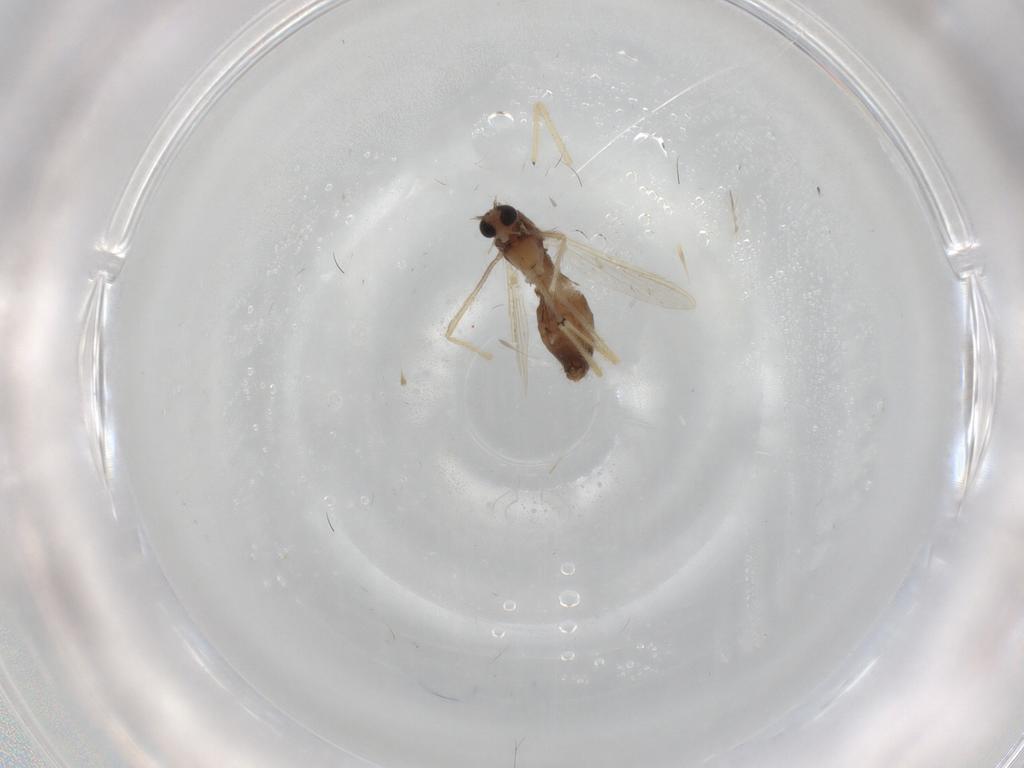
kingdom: Animalia
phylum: Arthropoda
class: Insecta
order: Diptera
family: Chironomidae
